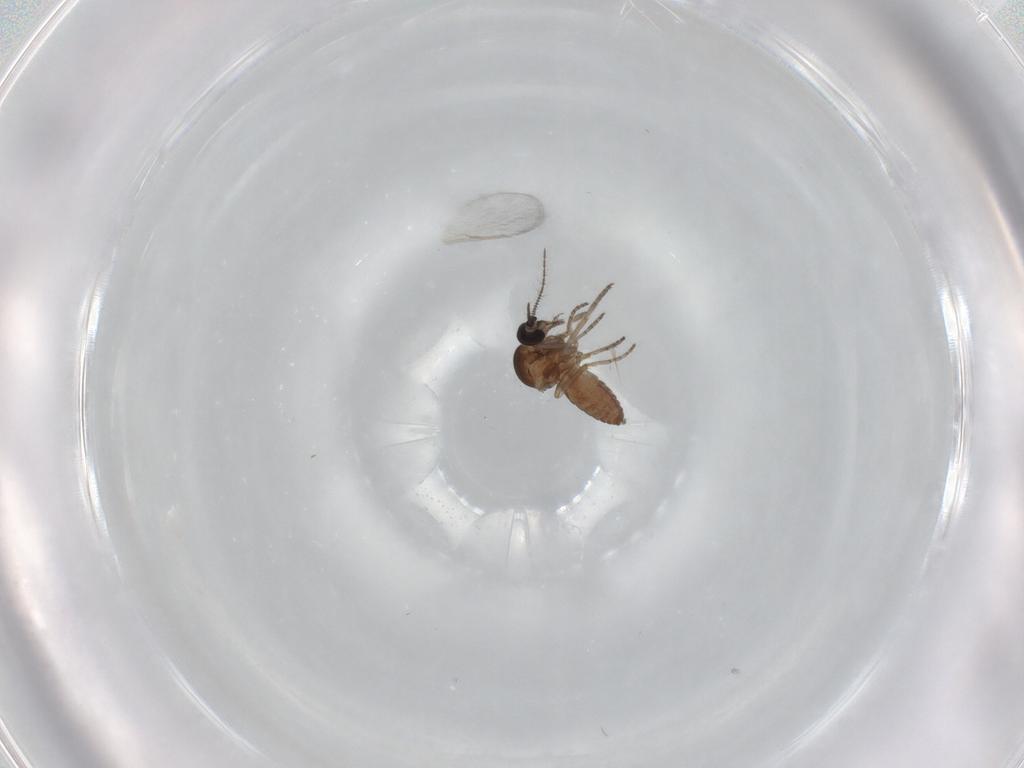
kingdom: Animalia
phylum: Arthropoda
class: Insecta
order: Diptera
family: Ceratopogonidae
